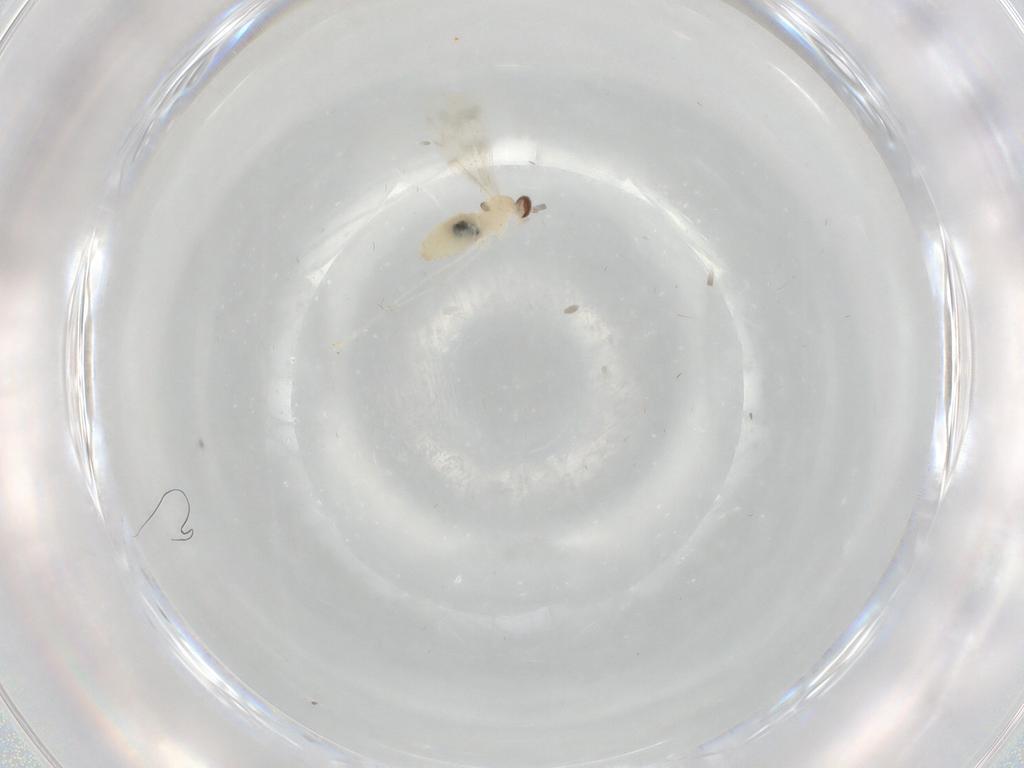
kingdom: Animalia
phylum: Arthropoda
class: Insecta
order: Diptera
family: Cecidomyiidae
